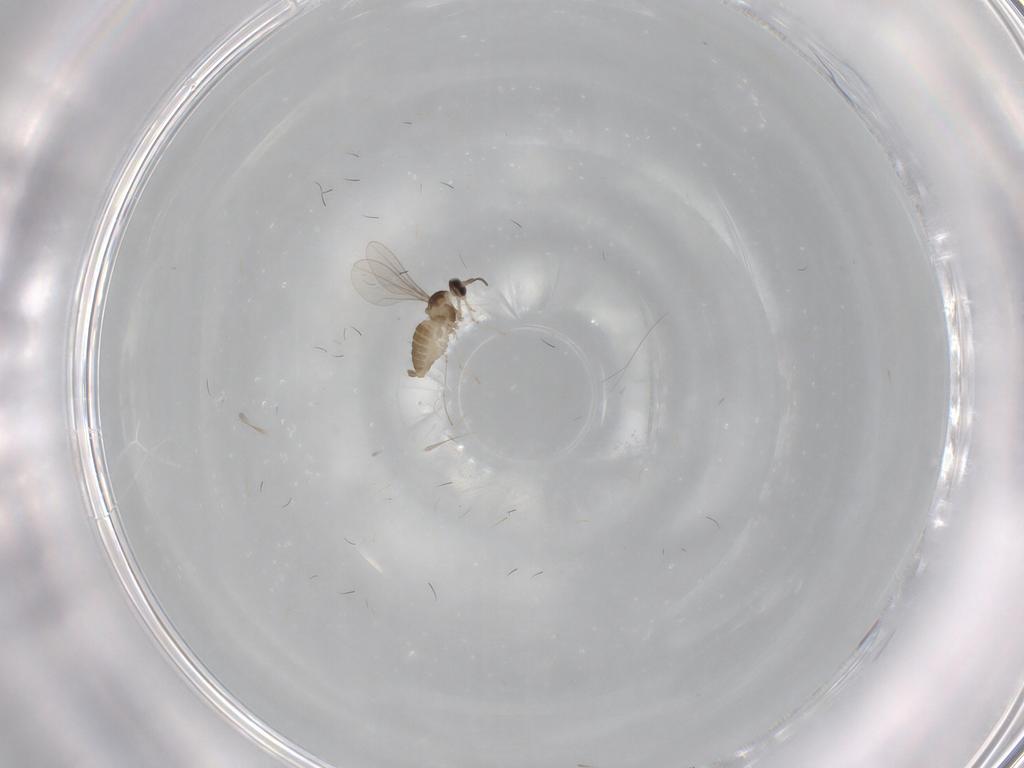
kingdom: Animalia
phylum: Arthropoda
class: Insecta
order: Diptera
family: Cecidomyiidae
